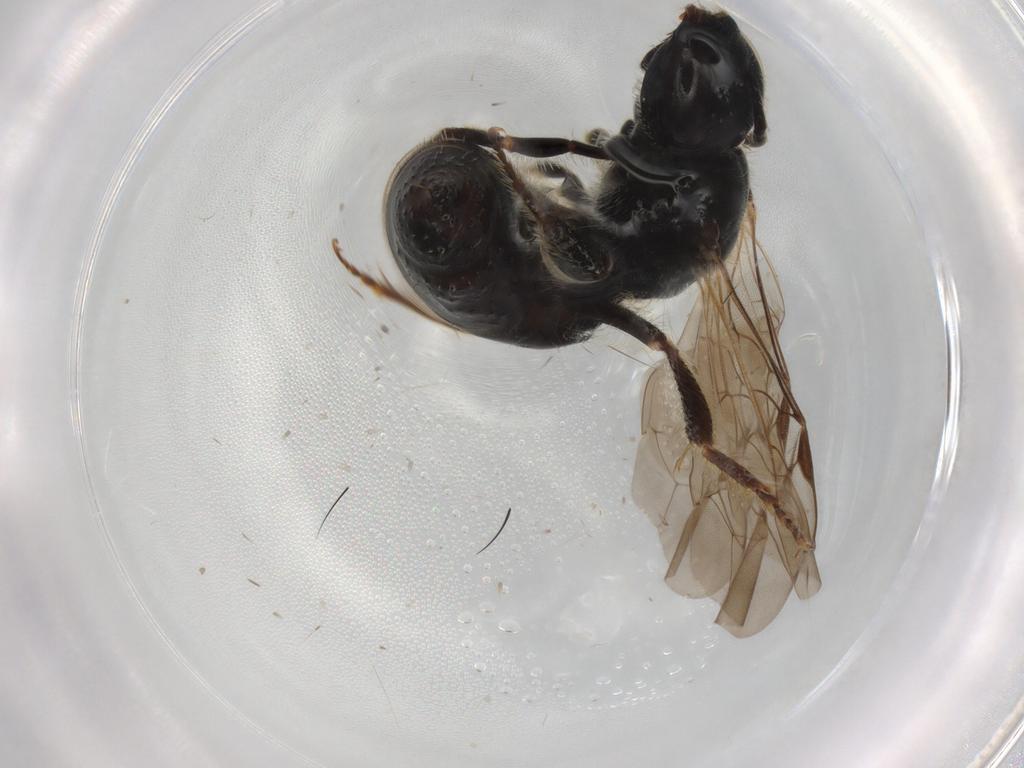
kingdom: Animalia
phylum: Arthropoda
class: Insecta
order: Hymenoptera
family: Halictidae
